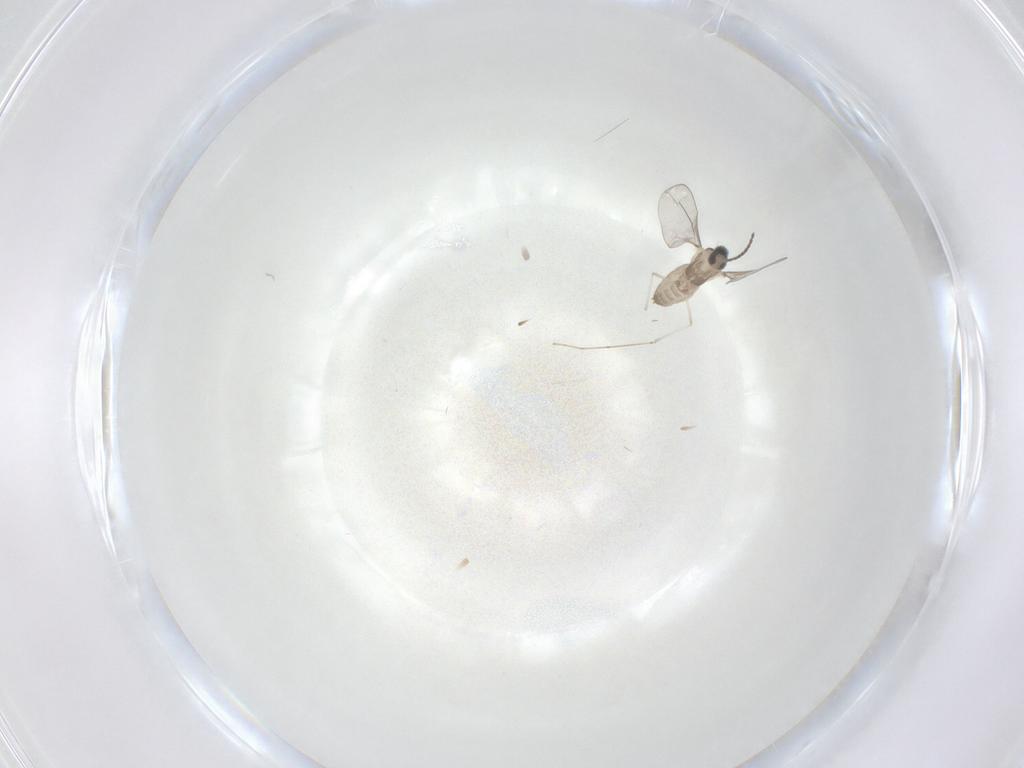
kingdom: Animalia
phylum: Arthropoda
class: Insecta
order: Diptera
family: Cecidomyiidae
